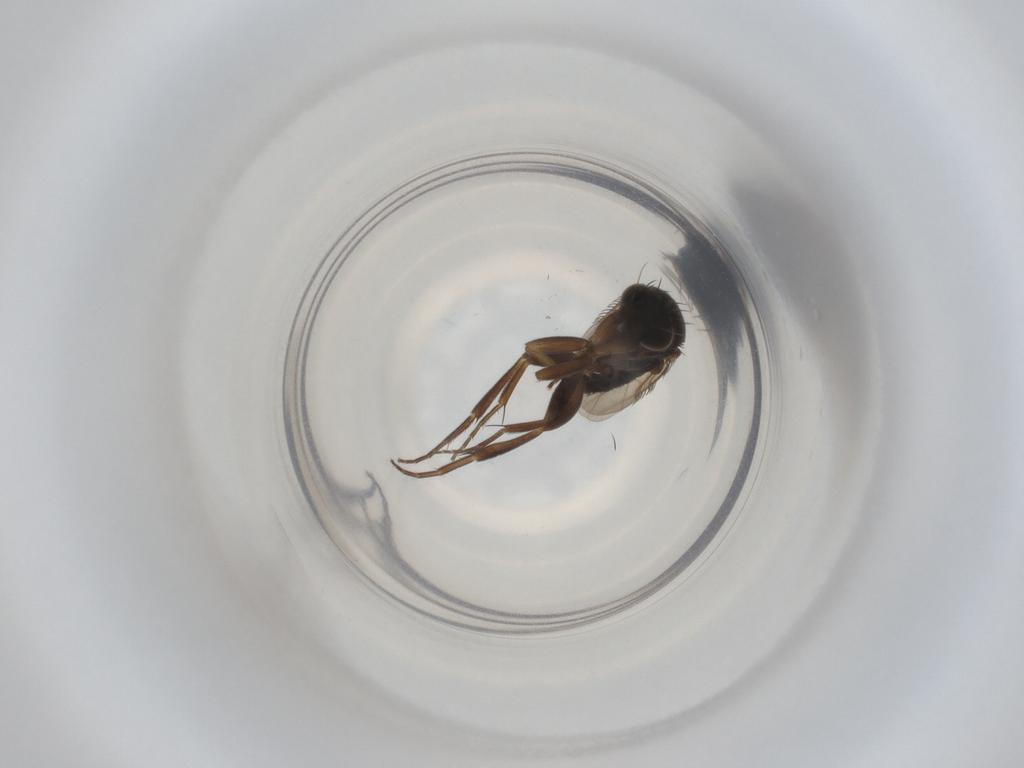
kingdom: Animalia
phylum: Arthropoda
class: Insecta
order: Diptera
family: Phoridae
